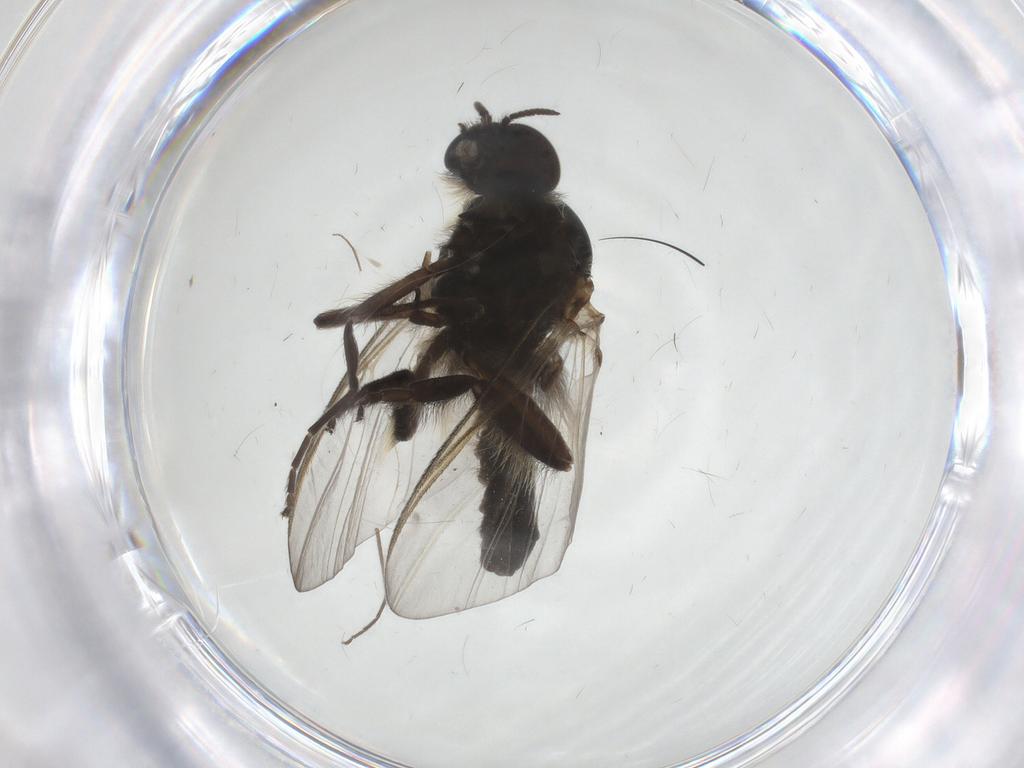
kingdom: Animalia
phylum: Arthropoda
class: Insecta
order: Diptera
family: Sciaridae
